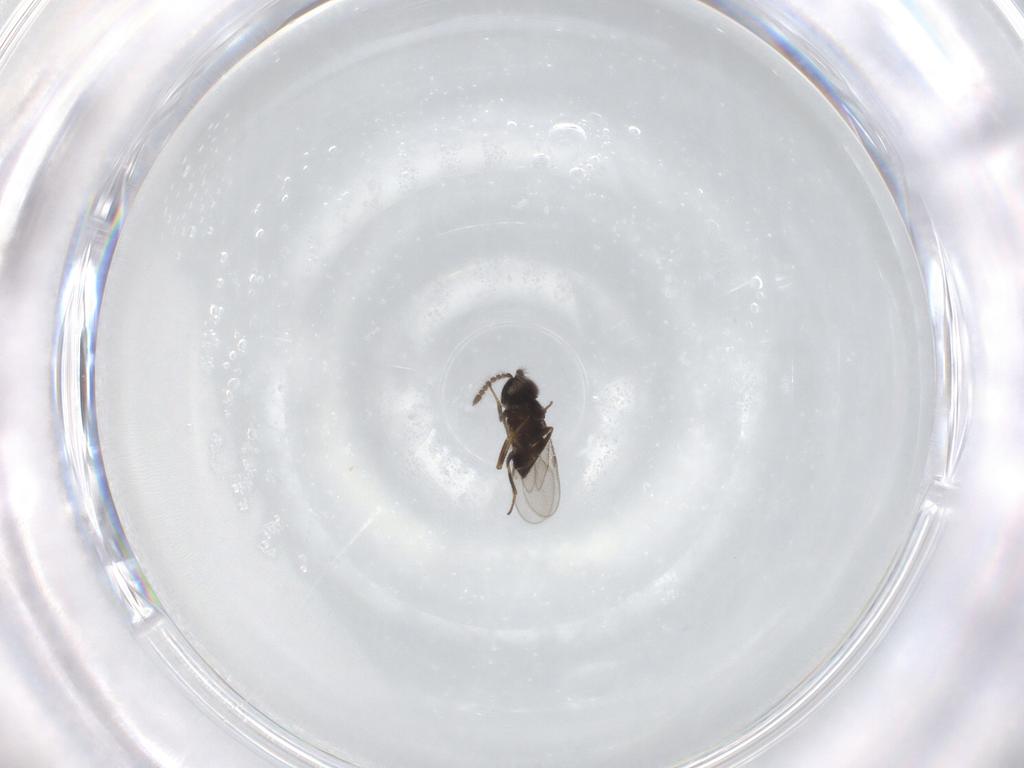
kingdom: Animalia
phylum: Arthropoda
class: Insecta
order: Hymenoptera
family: Encyrtidae
